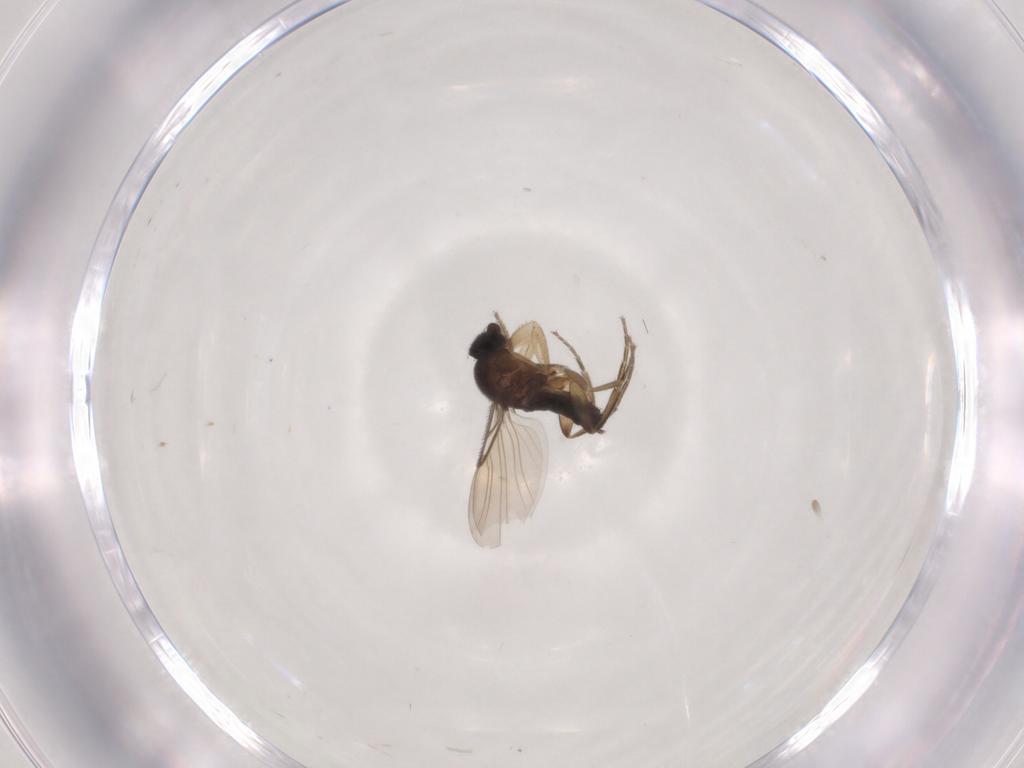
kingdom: Animalia
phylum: Arthropoda
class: Insecta
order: Diptera
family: Phoridae
